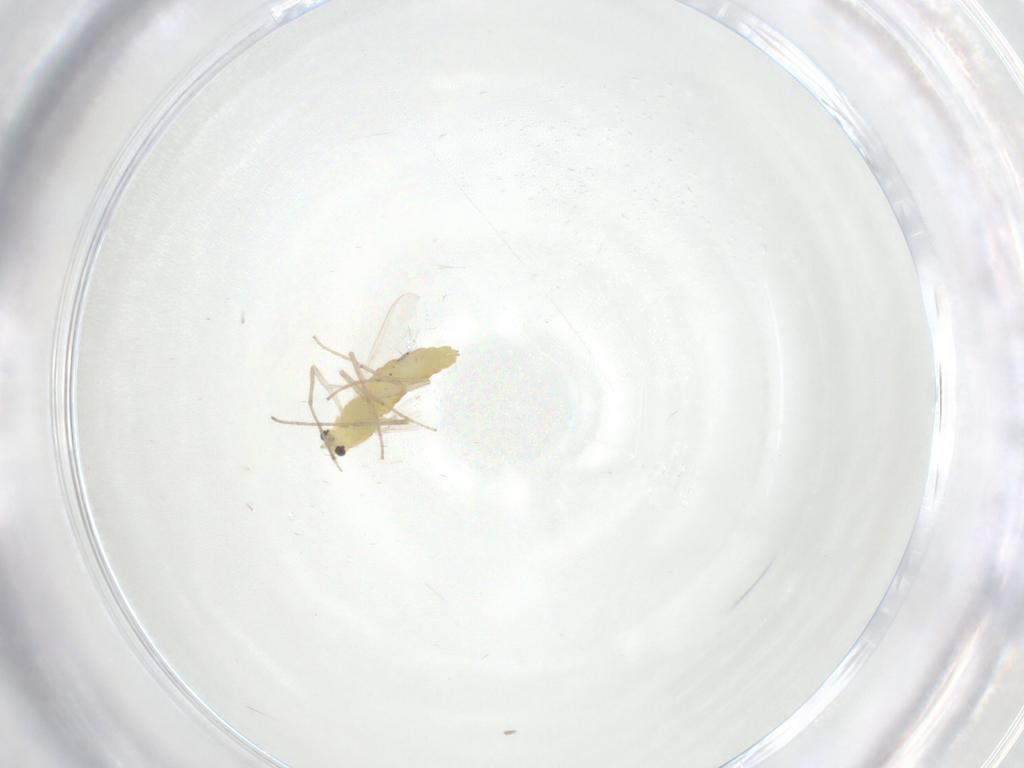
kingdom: Animalia
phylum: Arthropoda
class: Insecta
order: Diptera
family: Chironomidae
